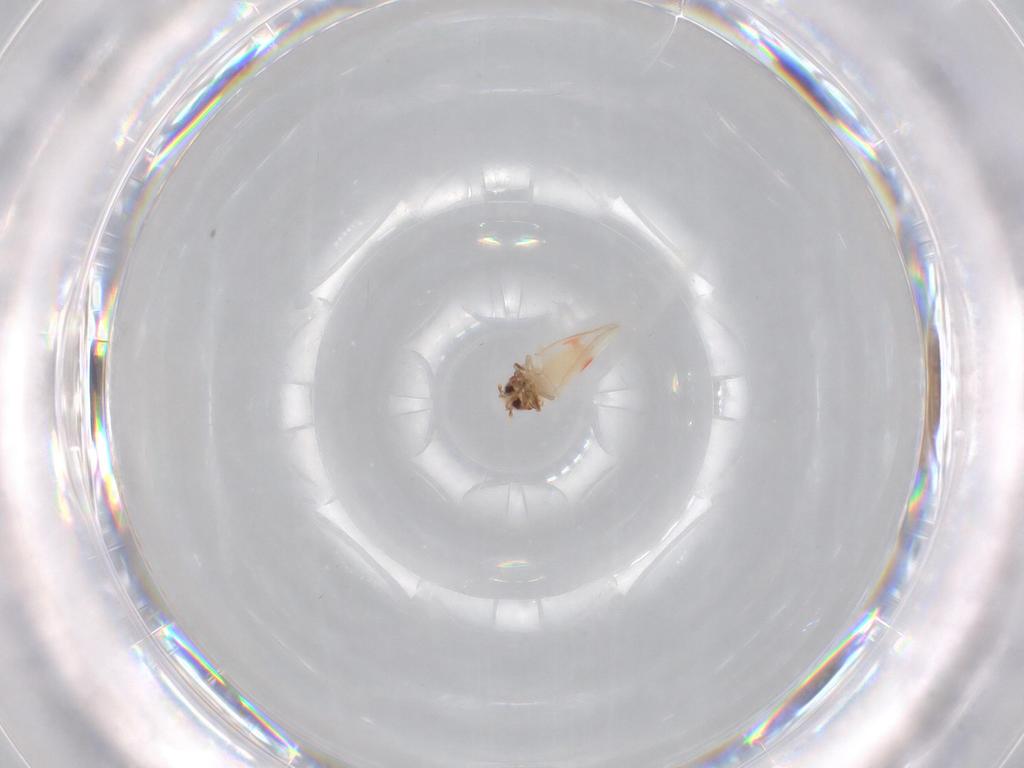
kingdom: Animalia
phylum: Arthropoda
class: Insecta
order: Hemiptera
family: Aleyrodidae
